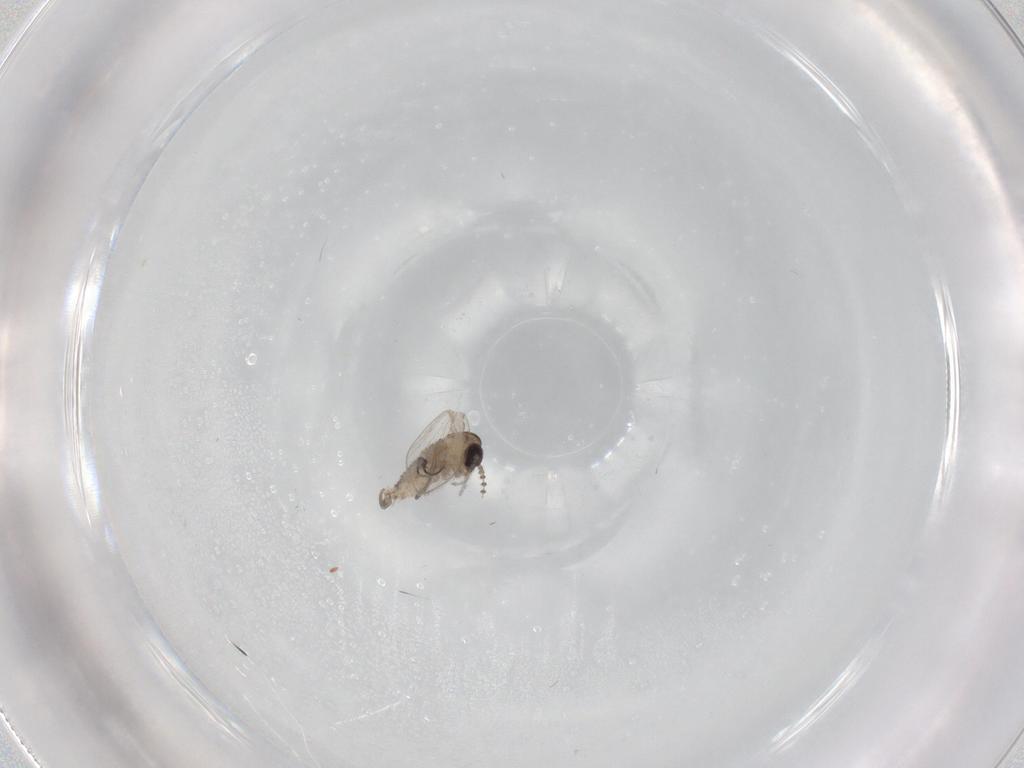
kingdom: Animalia
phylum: Arthropoda
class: Insecta
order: Diptera
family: Psychodidae
